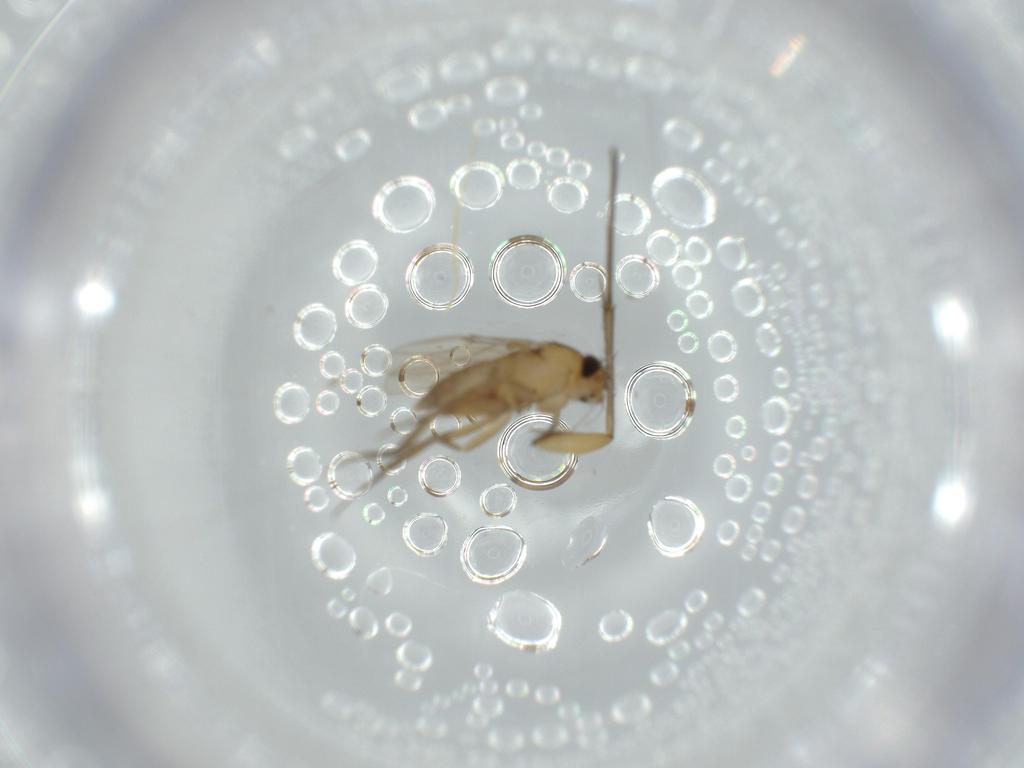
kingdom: Animalia
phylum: Arthropoda
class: Insecta
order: Diptera
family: Chironomidae
